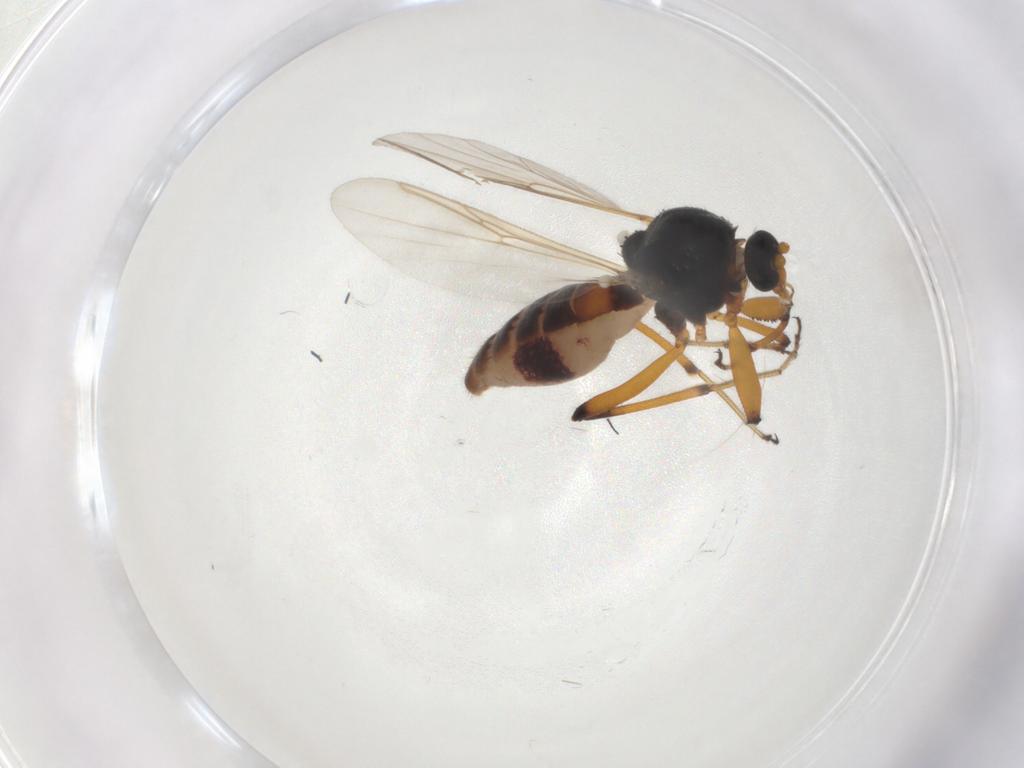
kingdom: Animalia
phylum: Arthropoda
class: Insecta
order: Diptera
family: Ceratopogonidae
